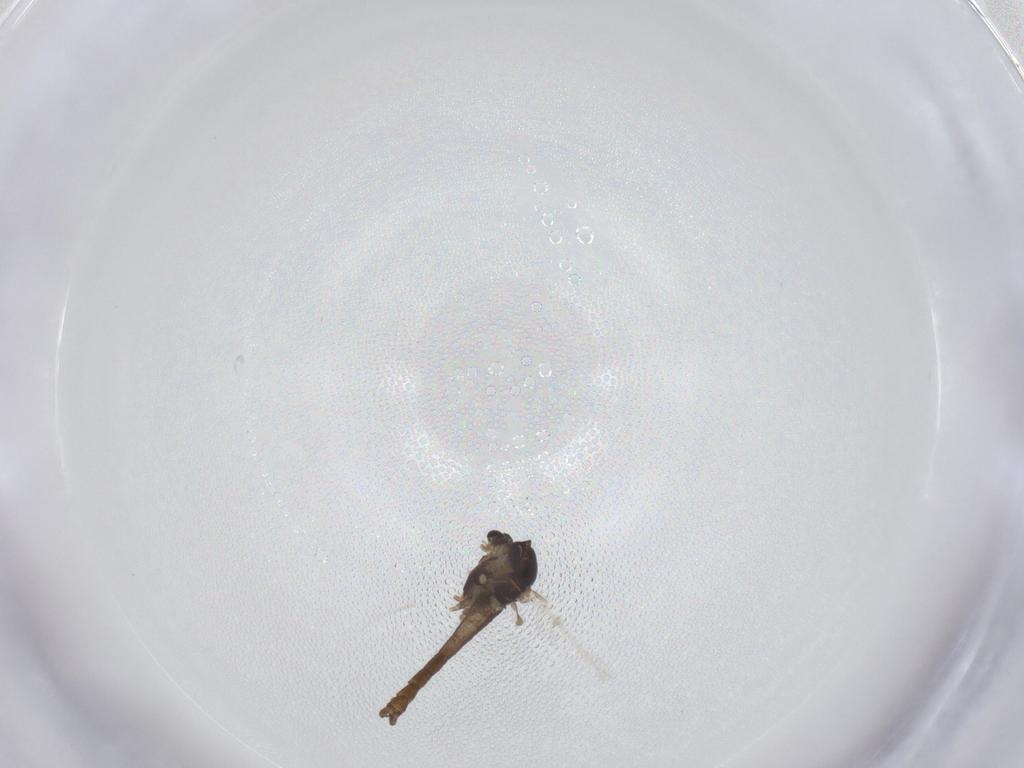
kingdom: Animalia
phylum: Arthropoda
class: Insecta
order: Diptera
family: Chironomidae
